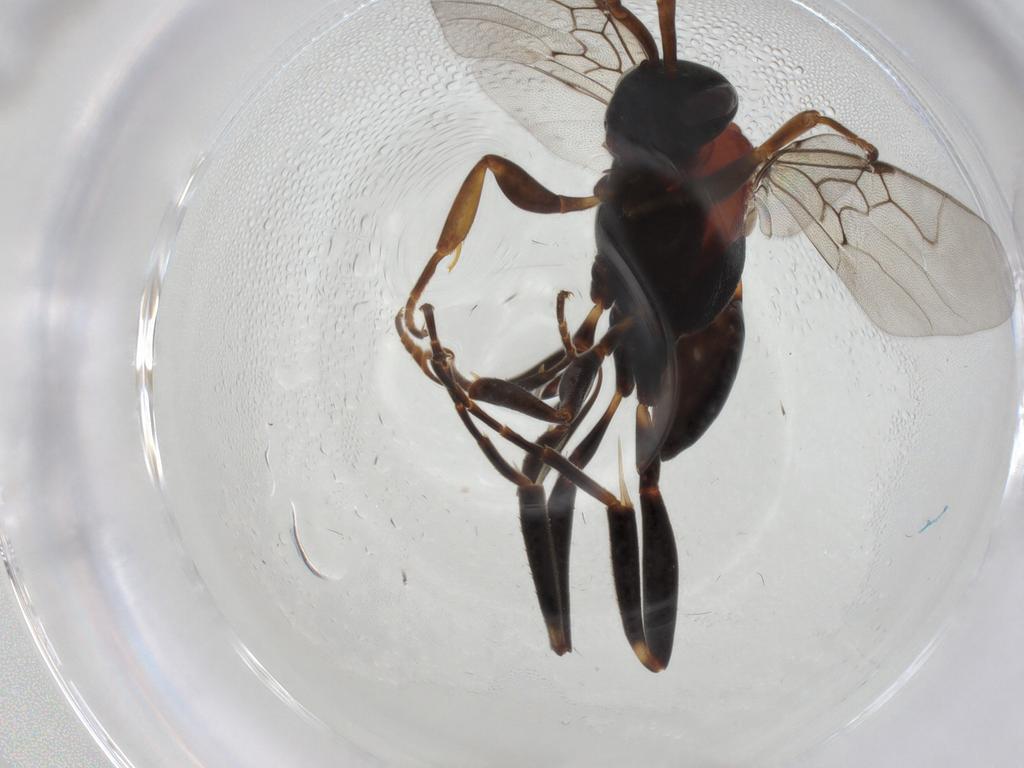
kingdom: Animalia
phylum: Arthropoda
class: Insecta
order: Hymenoptera
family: Evaniidae
